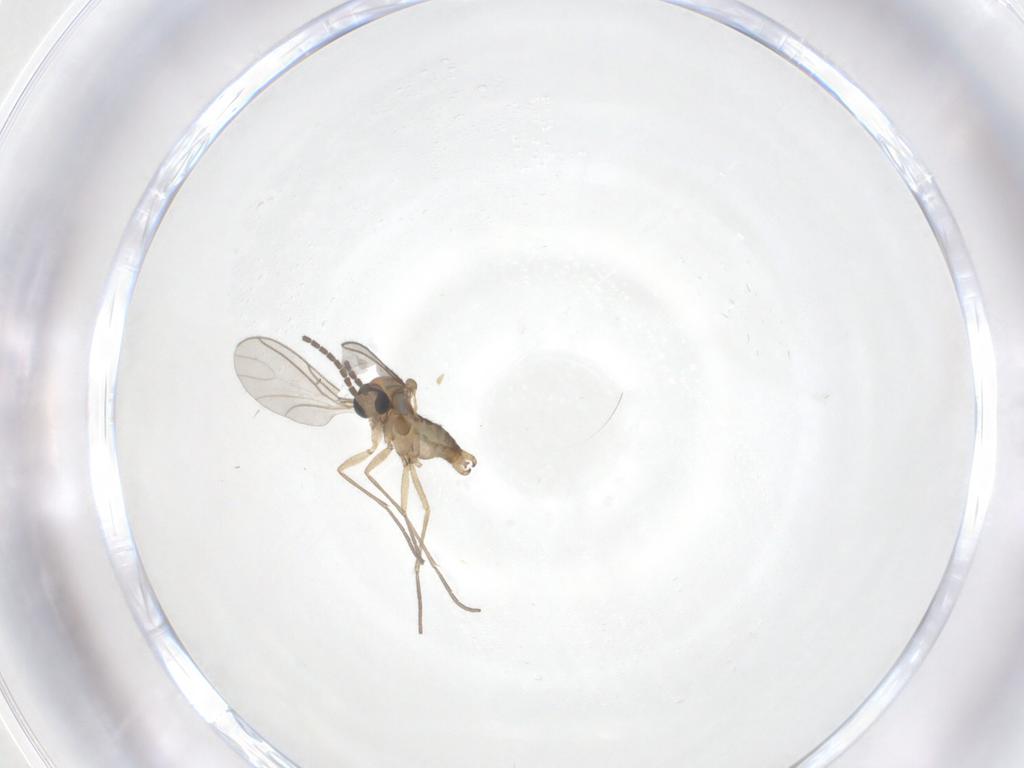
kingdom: Animalia
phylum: Arthropoda
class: Insecta
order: Diptera
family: Sciaridae
